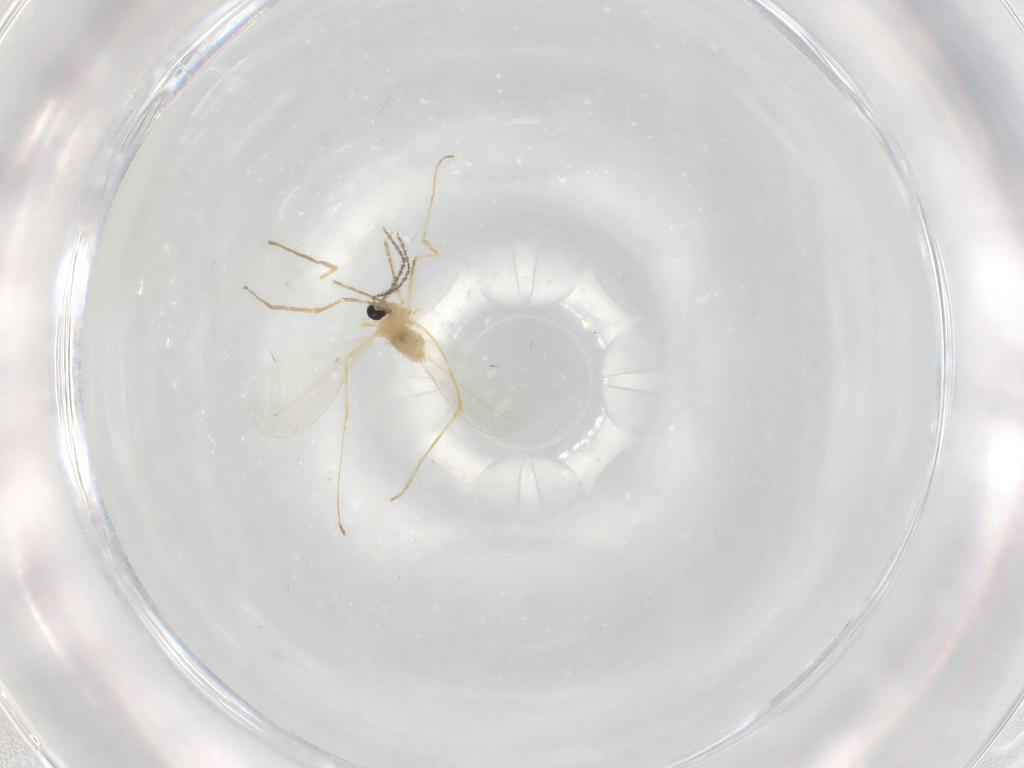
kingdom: Animalia
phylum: Arthropoda
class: Insecta
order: Diptera
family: Cecidomyiidae
